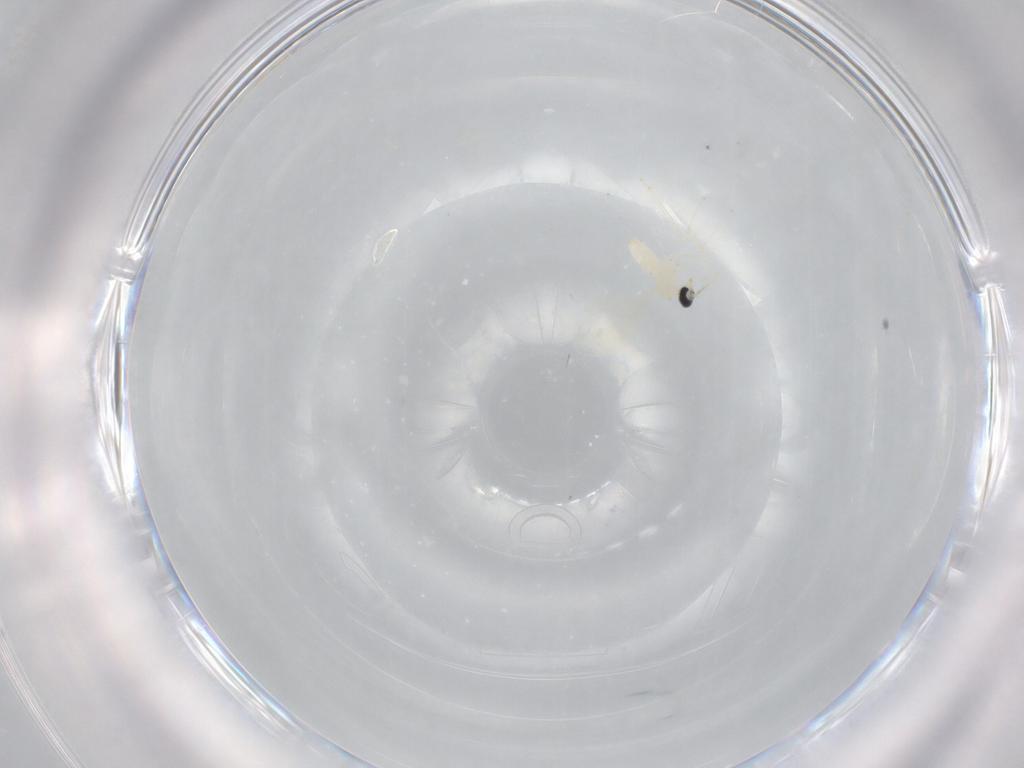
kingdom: Animalia
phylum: Arthropoda
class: Insecta
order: Diptera
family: Cecidomyiidae
